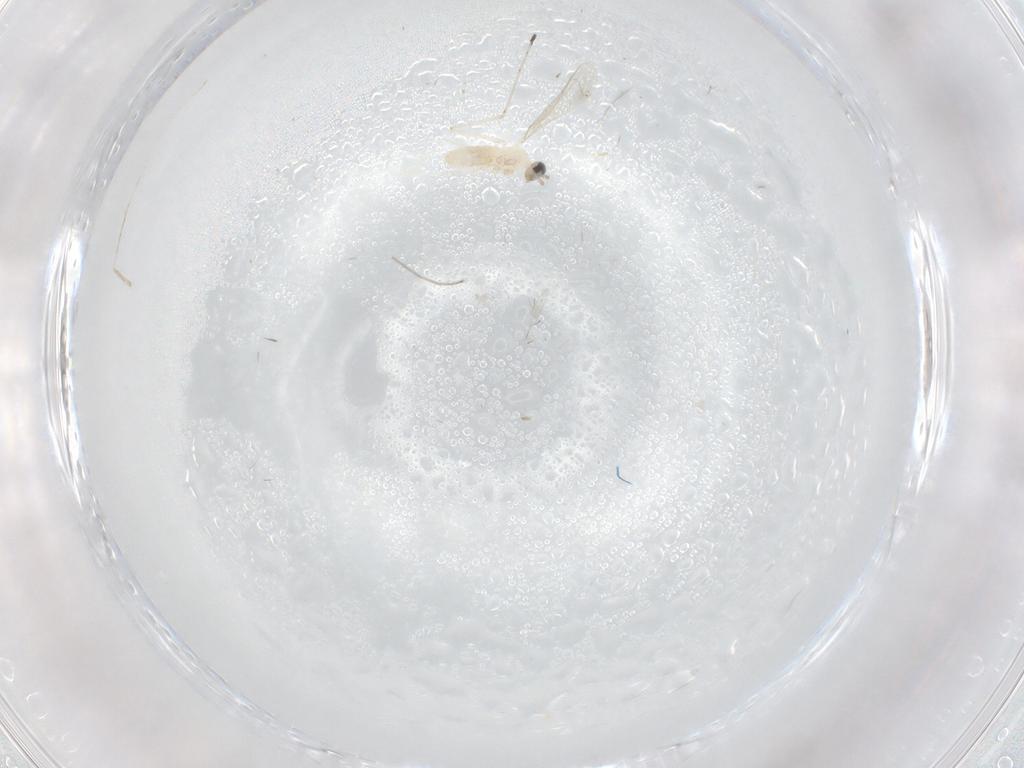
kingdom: Animalia
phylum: Arthropoda
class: Insecta
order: Diptera
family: Cecidomyiidae
